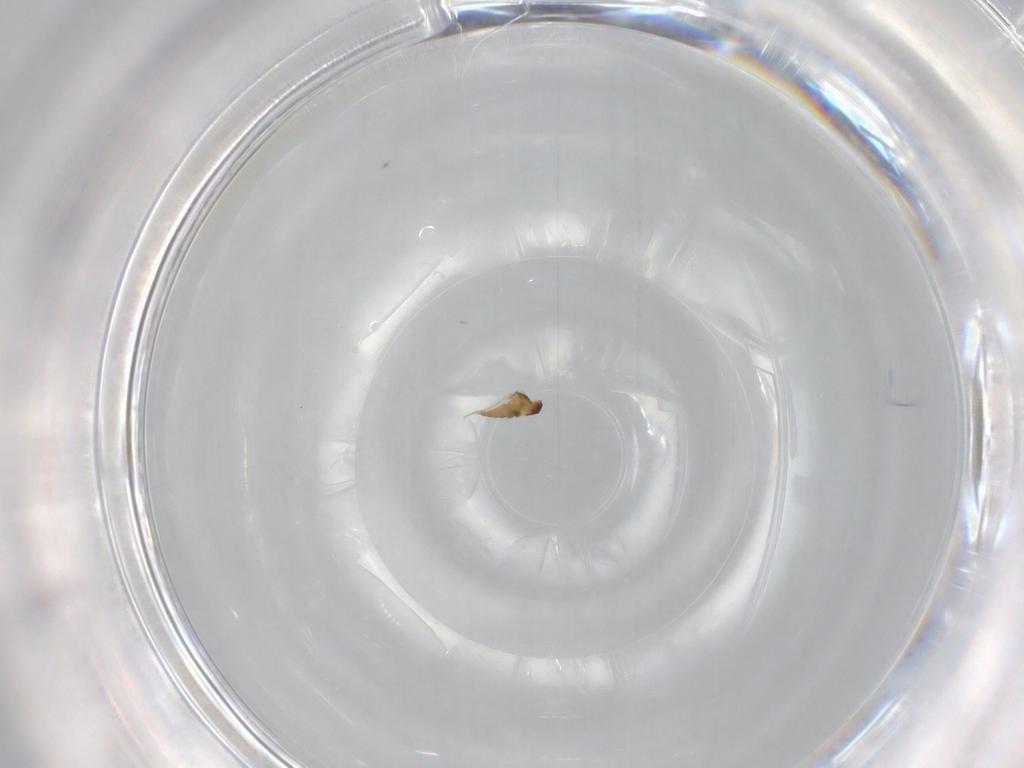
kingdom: Animalia
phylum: Arthropoda
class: Insecta
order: Diptera
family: Cecidomyiidae
